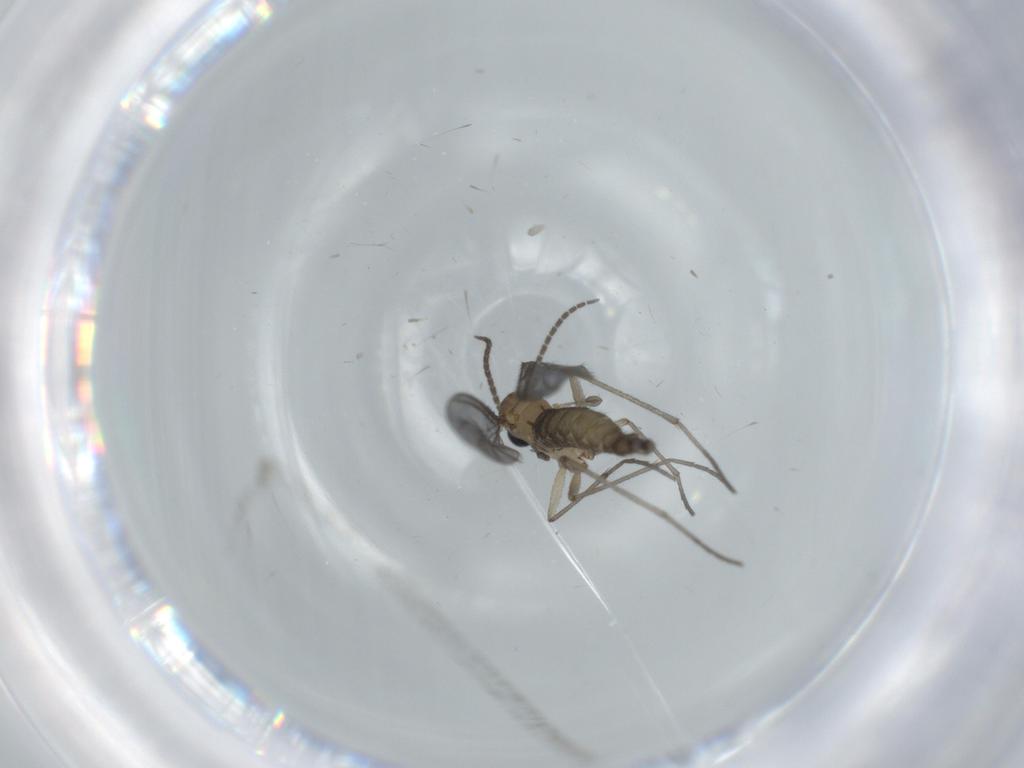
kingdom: Animalia
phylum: Arthropoda
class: Insecta
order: Diptera
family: Sciaridae
